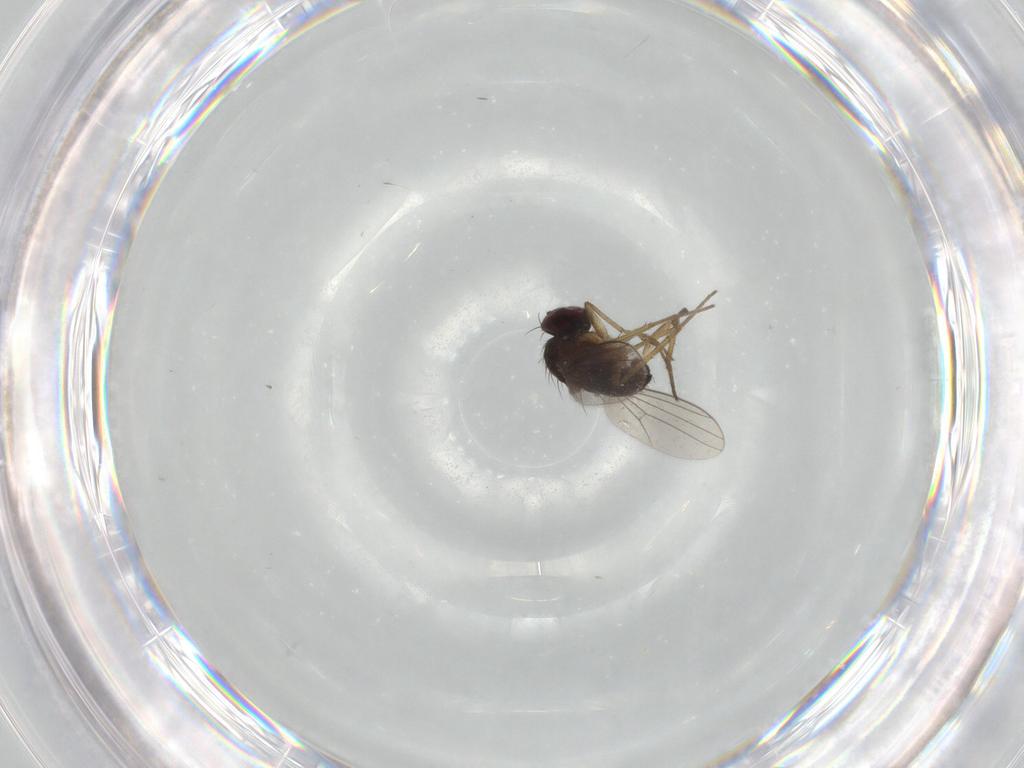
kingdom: Animalia
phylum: Arthropoda
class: Insecta
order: Diptera
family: Dolichopodidae
